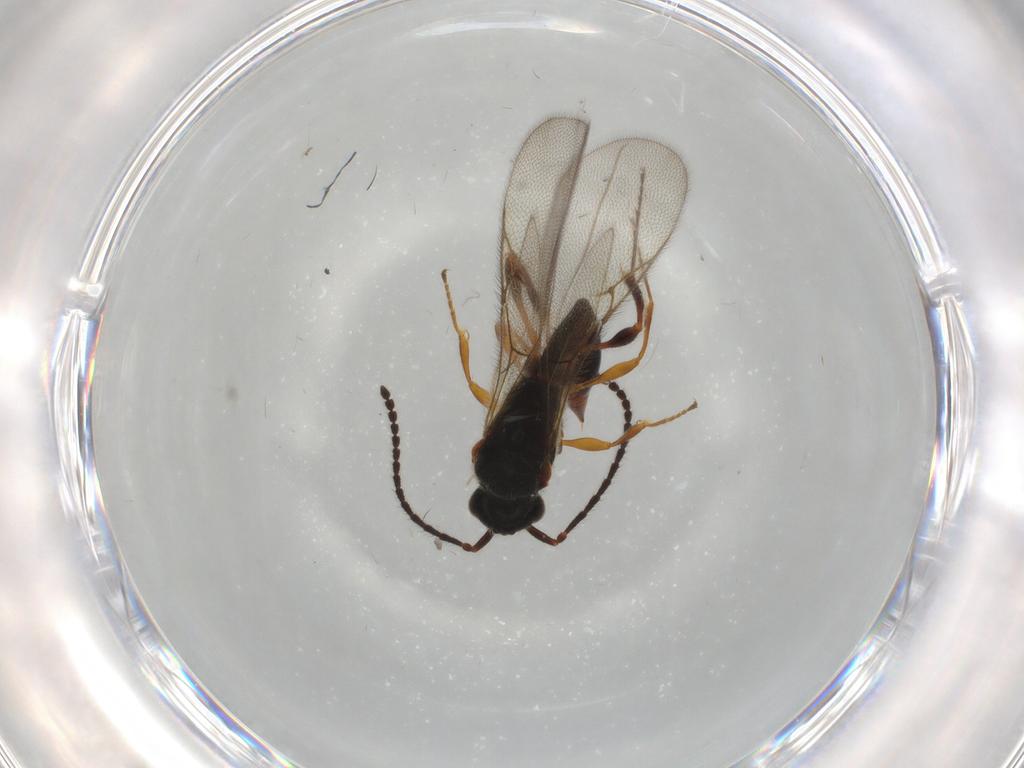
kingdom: Animalia
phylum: Arthropoda
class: Insecta
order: Hymenoptera
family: Diapriidae
